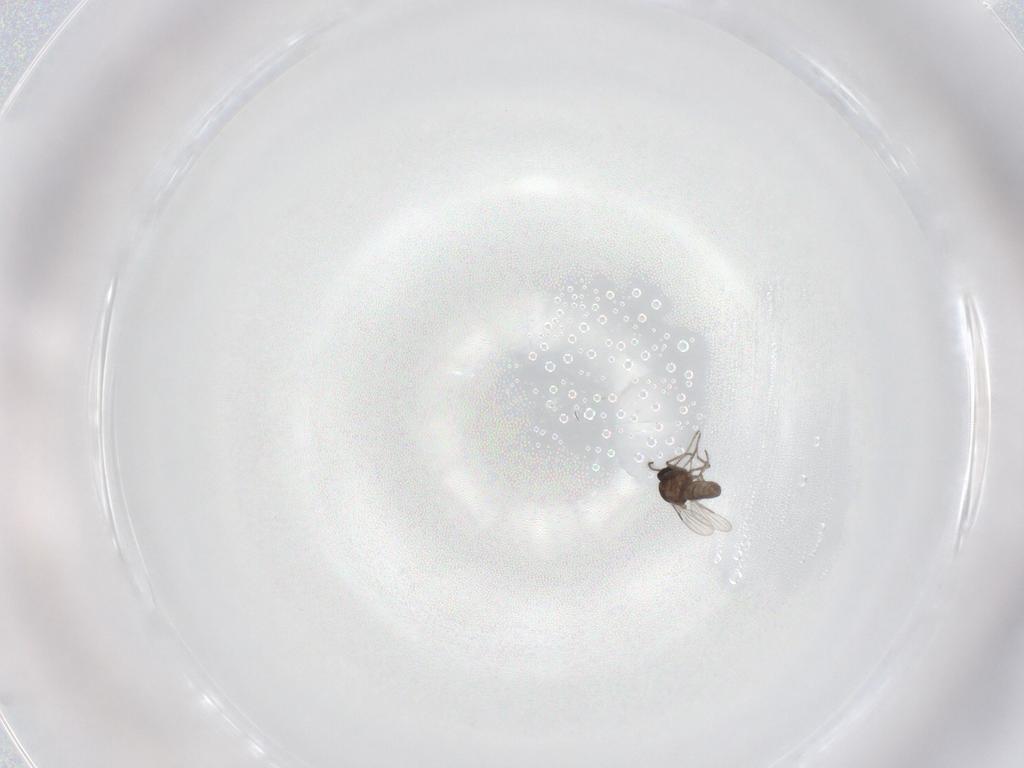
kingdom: Animalia
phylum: Arthropoda
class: Insecta
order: Diptera
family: Ceratopogonidae
